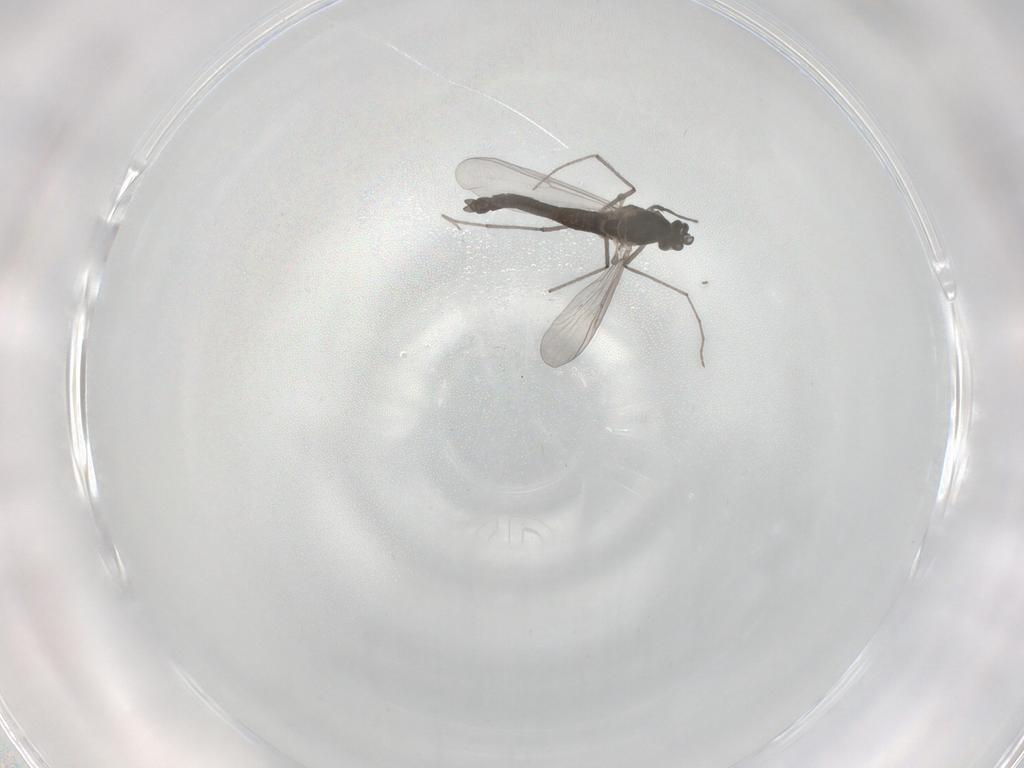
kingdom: Animalia
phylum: Arthropoda
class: Insecta
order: Diptera
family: Chironomidae
